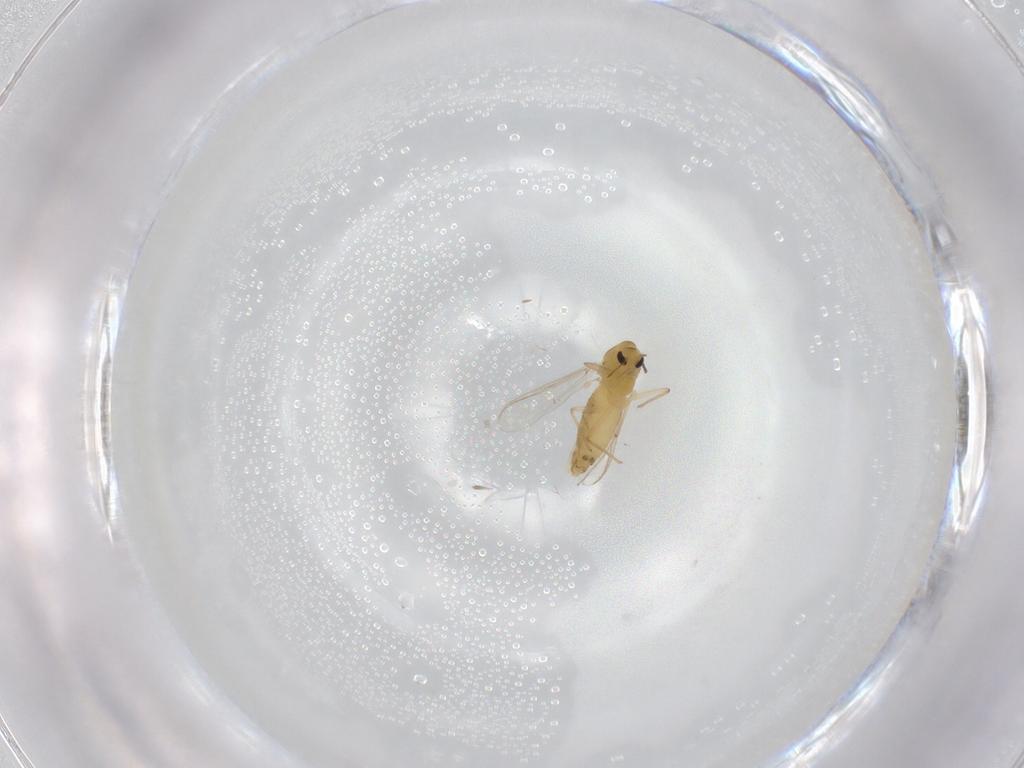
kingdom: Animalia
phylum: Arthropoda
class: Insecta
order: Diptera
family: Chironomidae
